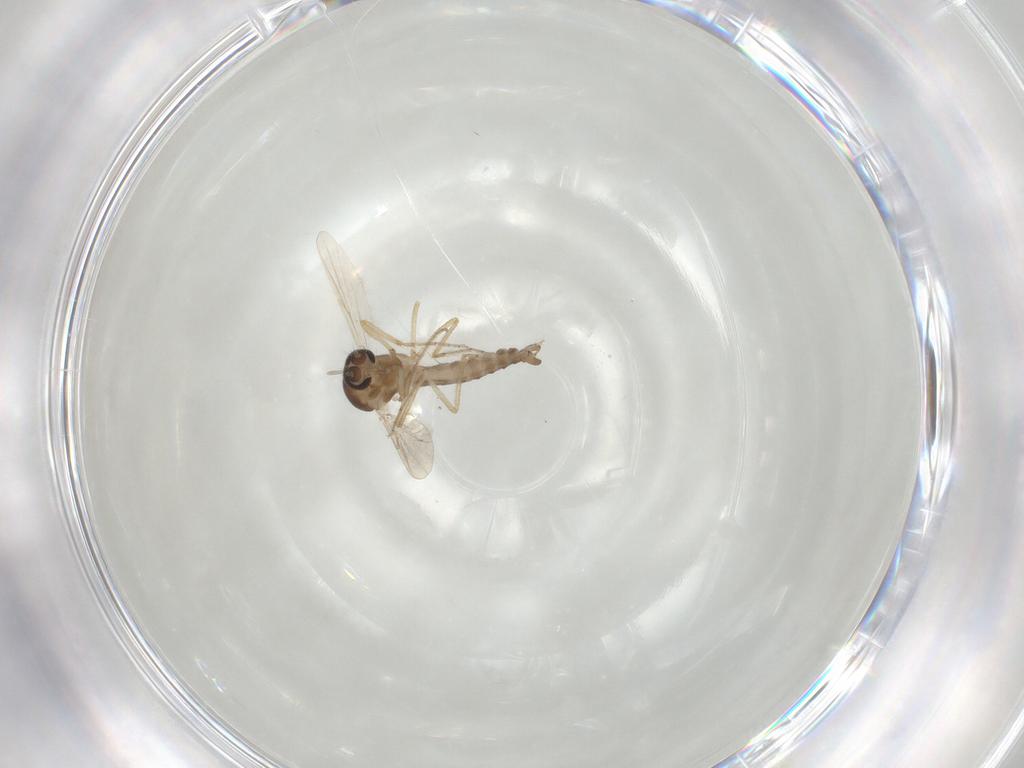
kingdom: Animalia
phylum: Arthropoda
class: Insecta
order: Diptera
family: Ceratopogonidae
